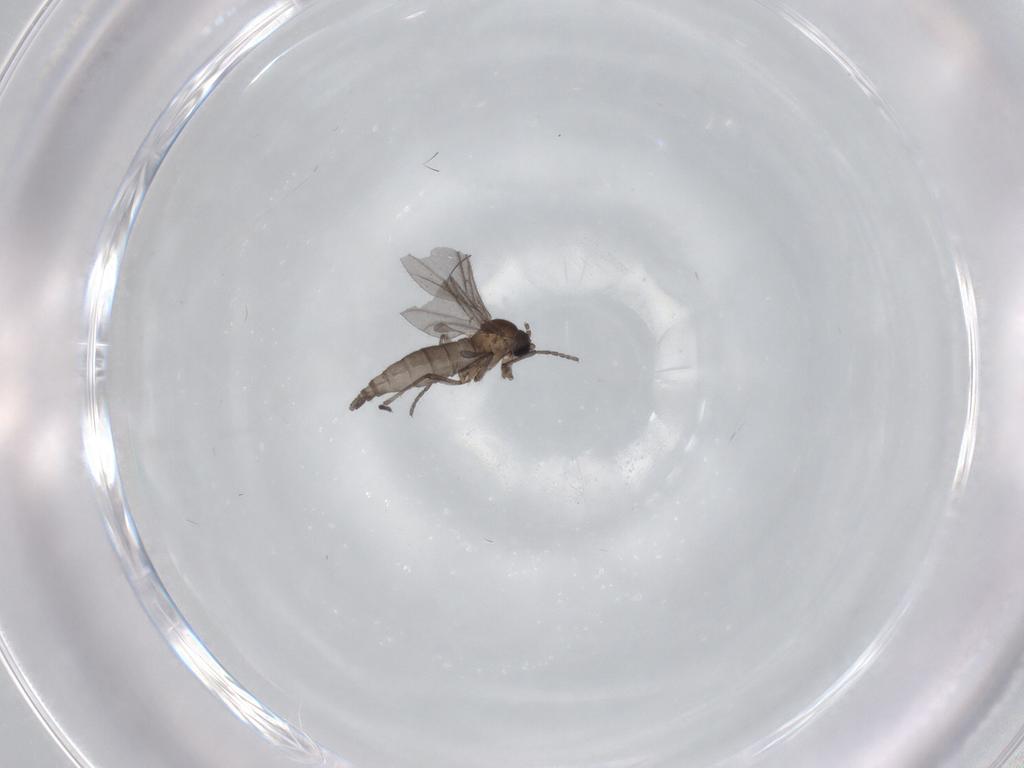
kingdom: Animalia
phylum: Arthropoda
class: Insecta
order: Diptera
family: Sciaridae
